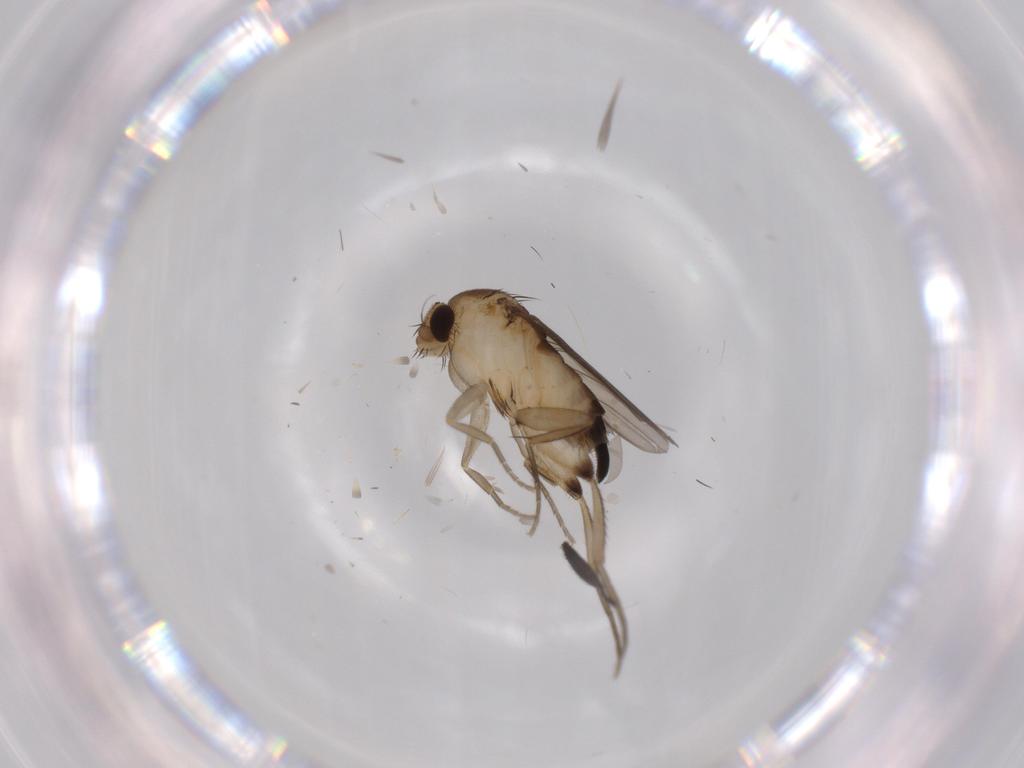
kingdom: Animalia
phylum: Arthropoda
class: Insecta
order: Diptera
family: Phoridae
